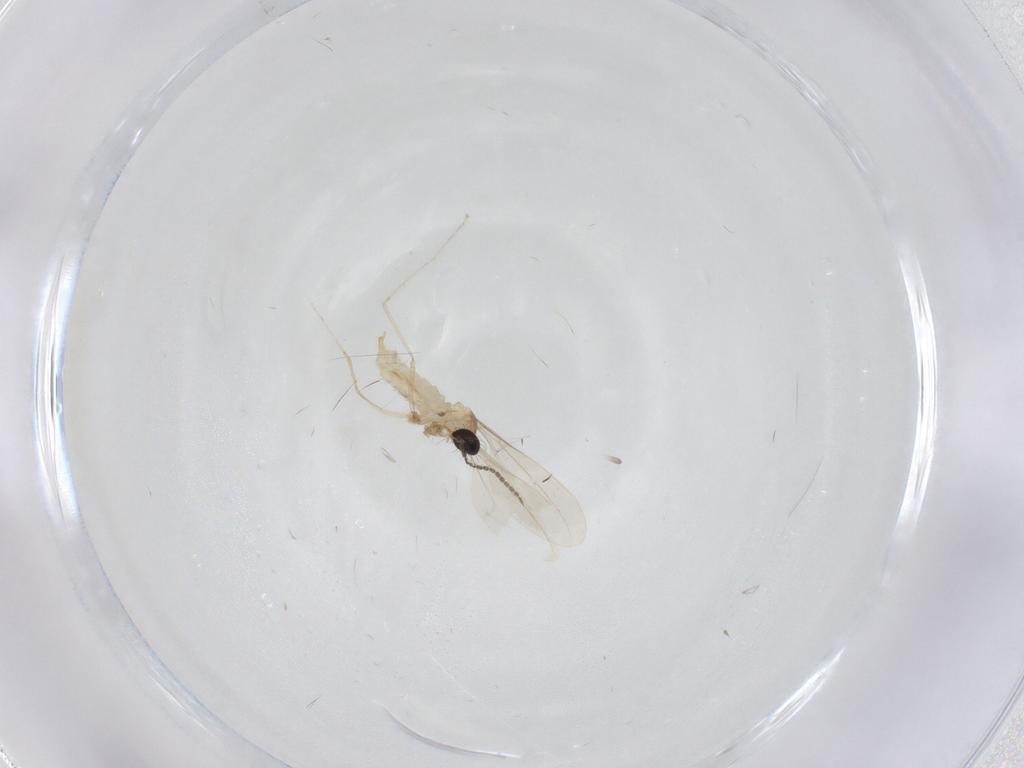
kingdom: Animalia
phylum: Arthropoda
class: Insecta
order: Diptera
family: Cecidomyiidae
